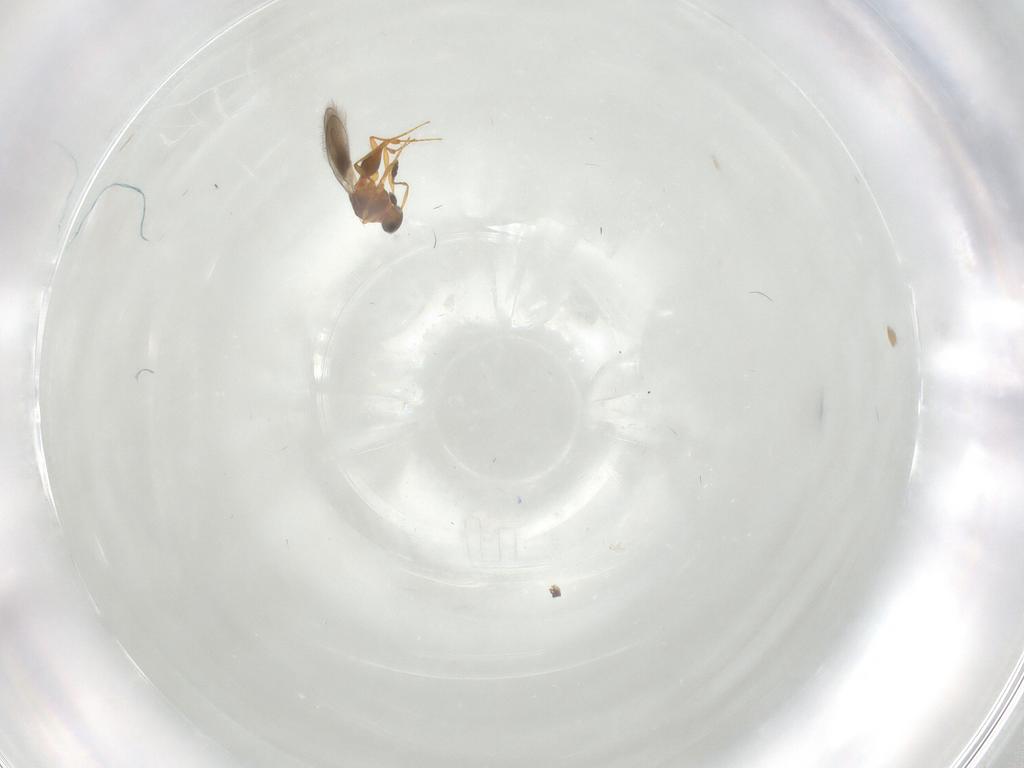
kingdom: Animalia
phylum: Arthropoda
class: Insecta
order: Hymenoptera
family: Platygastridae
